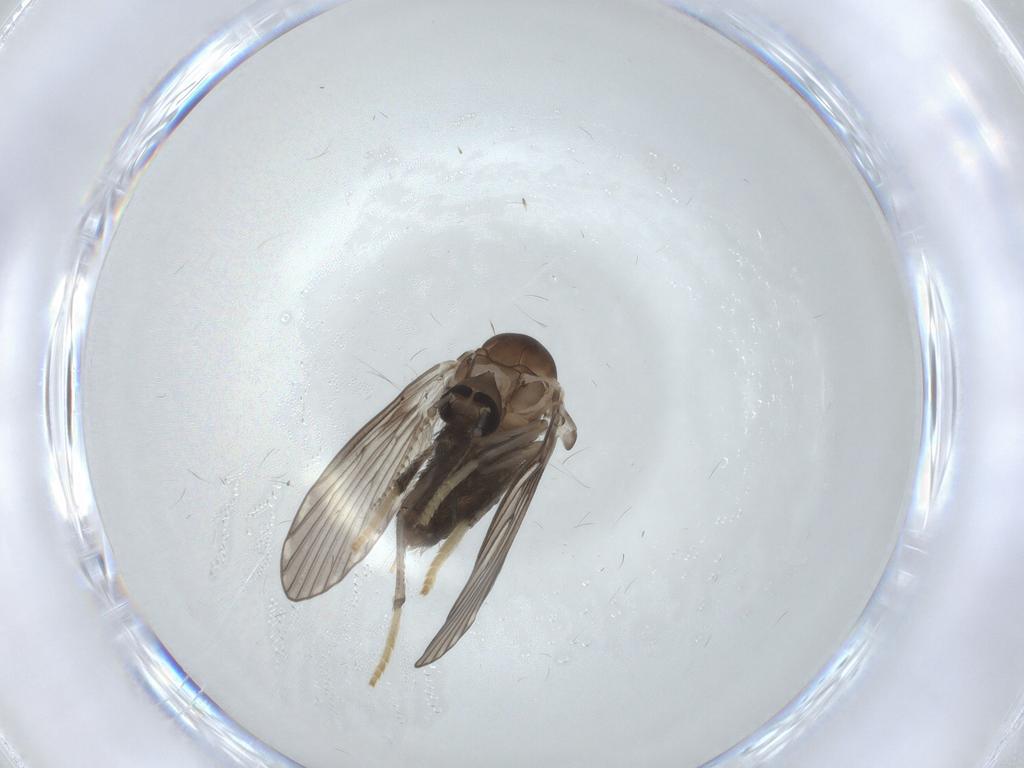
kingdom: Animalia
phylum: Arthropoda
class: Insecta
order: Diptera
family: Psychodidae
